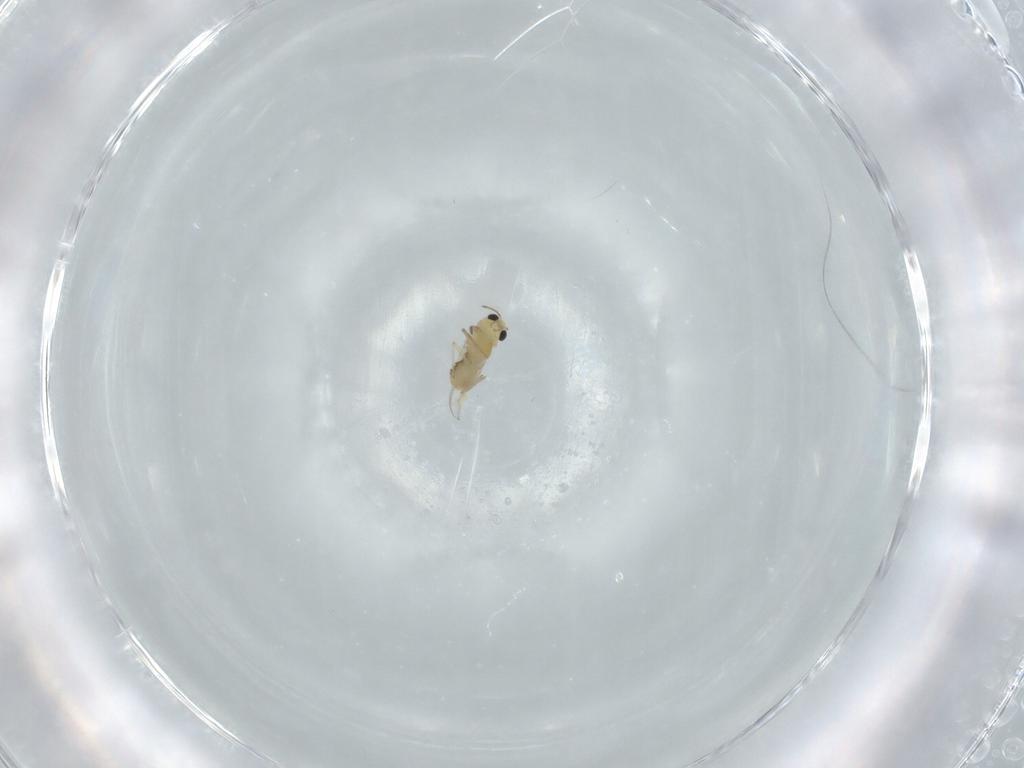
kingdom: Animalia
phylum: Arthropoda
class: Insecta
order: Diptera
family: Chironomidae
